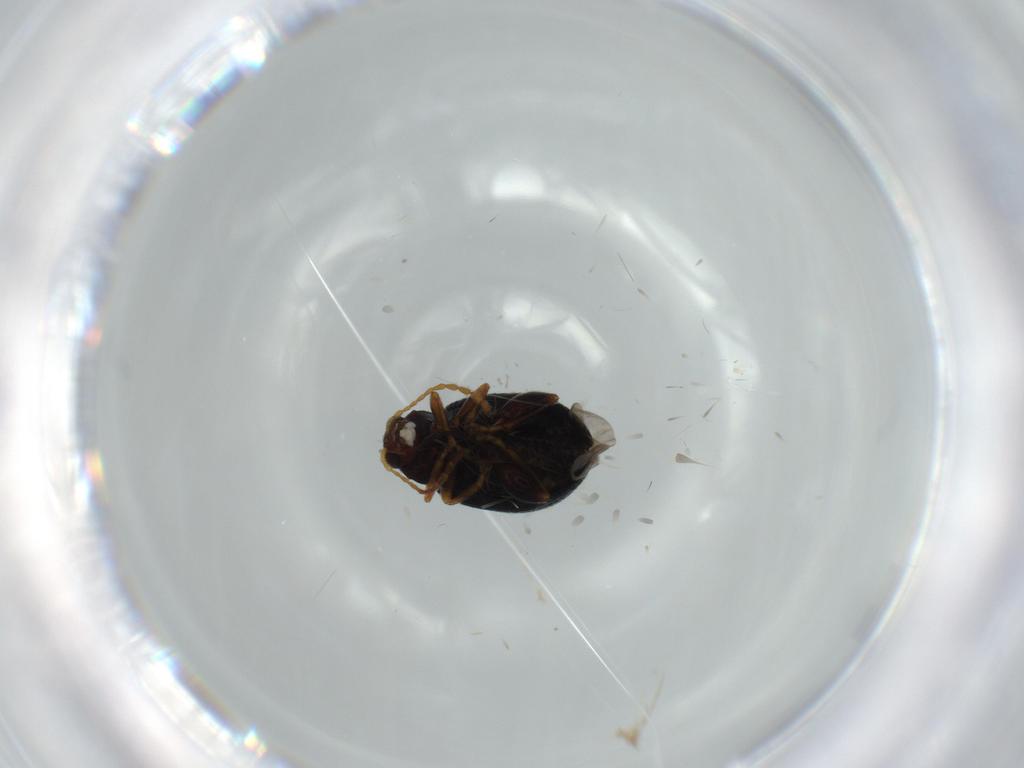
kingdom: Animalia
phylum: Arthropoda
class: Insecta
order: Coleoptera
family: Chrysomelidae
